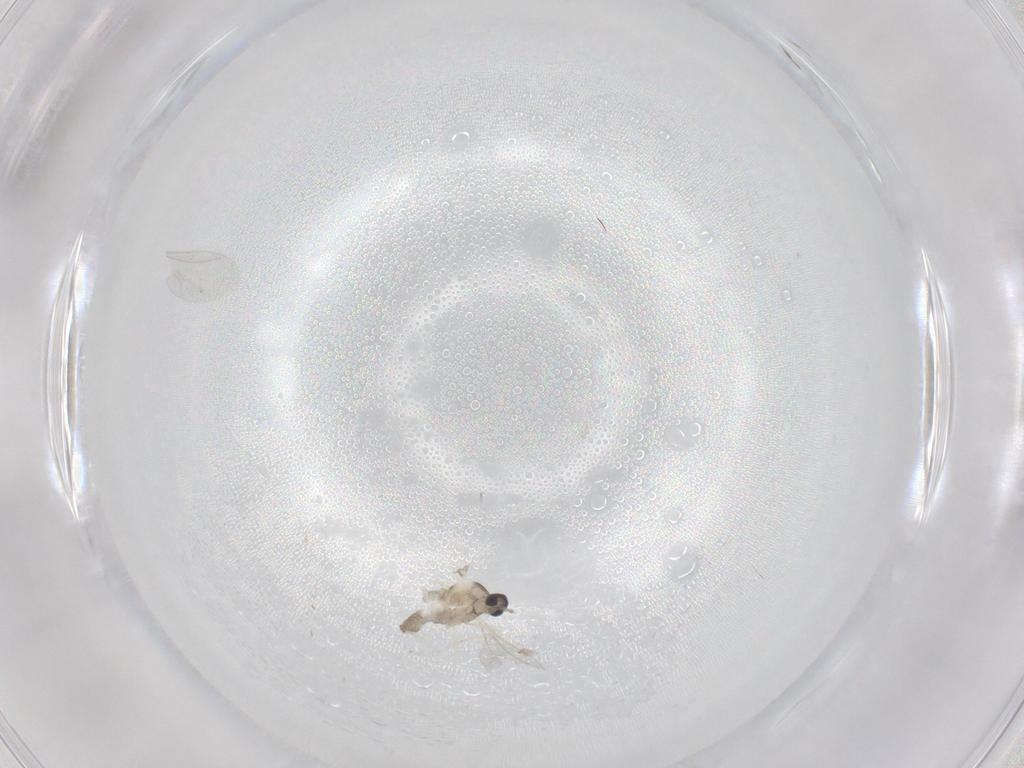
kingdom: Animalia
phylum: Arthropoda
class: Insecta
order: Diptera
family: Cecidomyiidae
